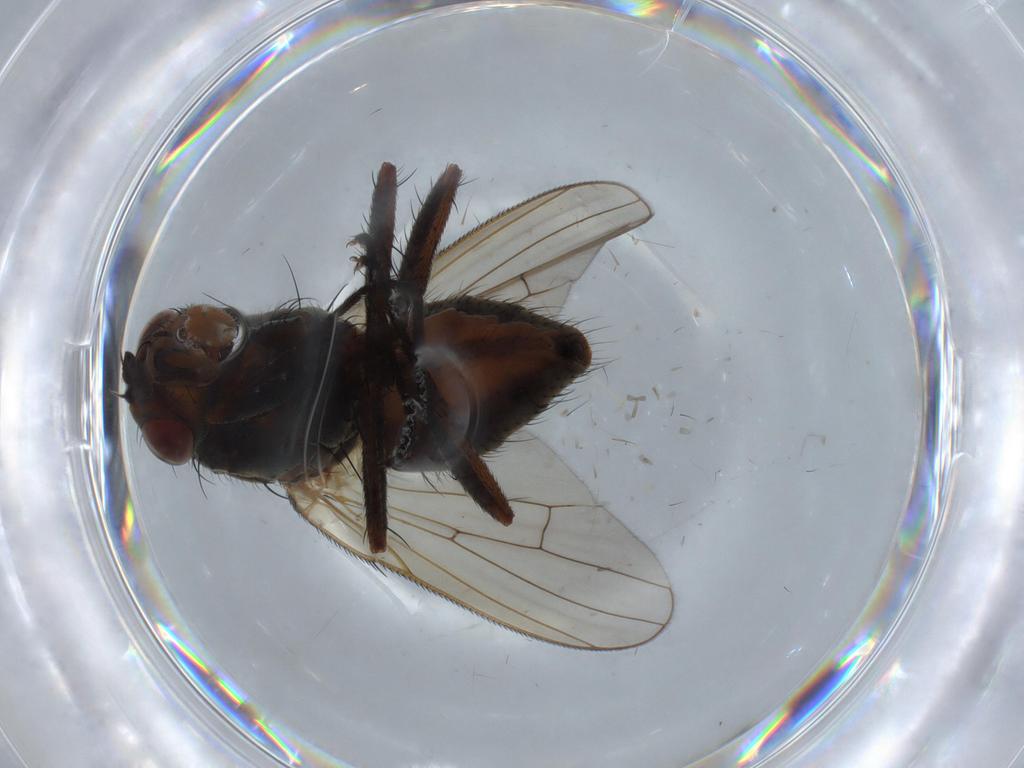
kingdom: Animalia
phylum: Arthropoda
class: Insecta
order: Diptera
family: Anthomyiidae
